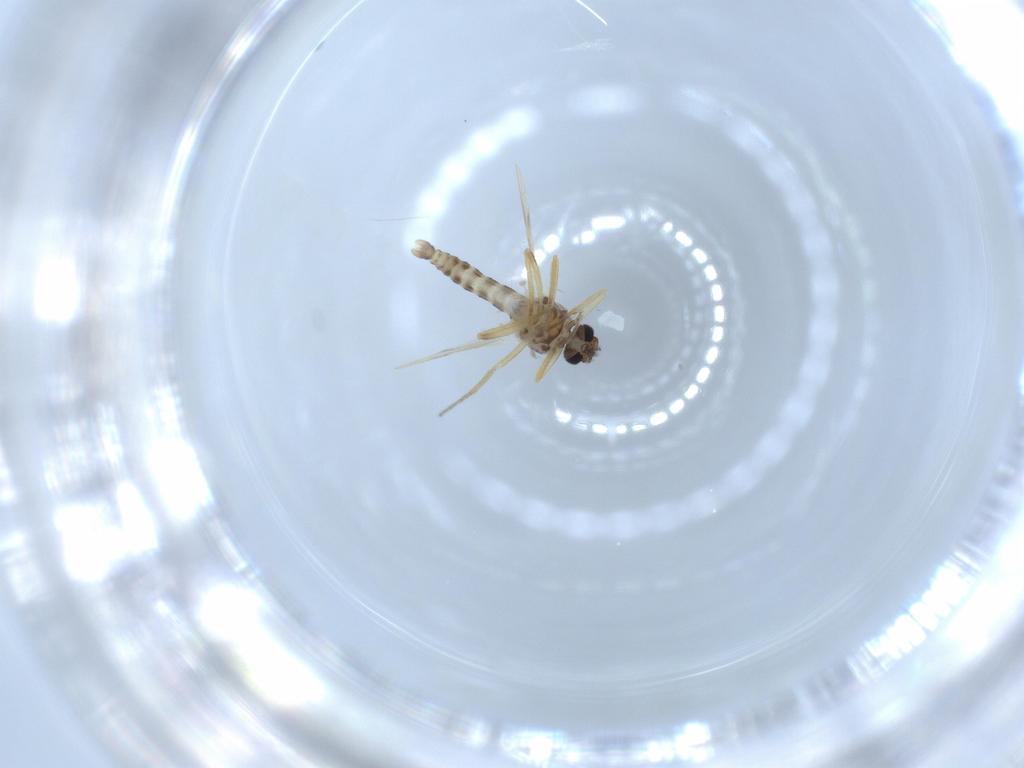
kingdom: Animalia
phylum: Arthropoda
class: Insecta
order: Diptera
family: Ceratopogonidae
